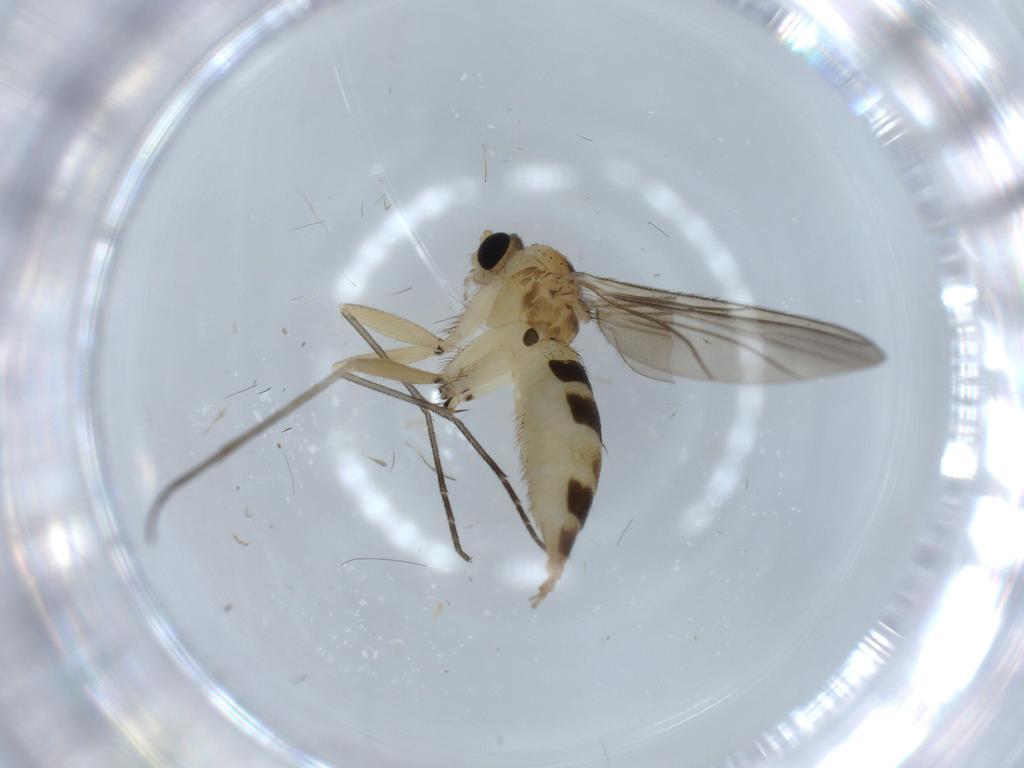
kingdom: Animalia
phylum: Arthropoda
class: Insecta
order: Diptera
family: Sciaridae
